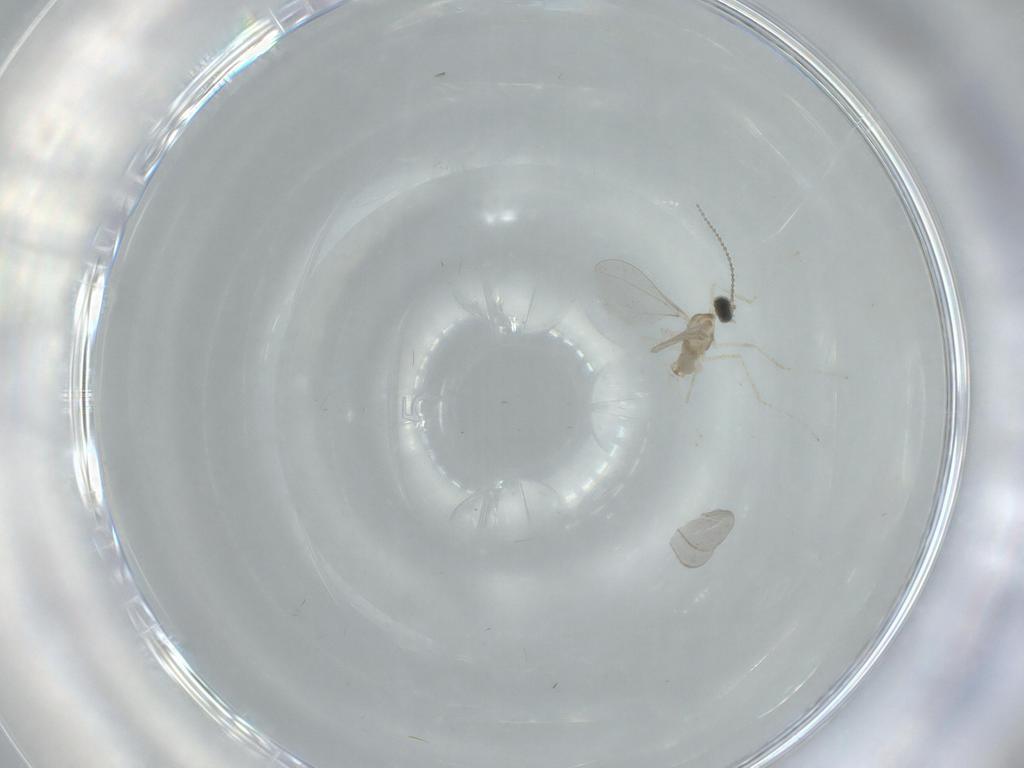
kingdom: Animalia
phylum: Arthropoda
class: Insecta
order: Diptera
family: Cecidomyiidae
